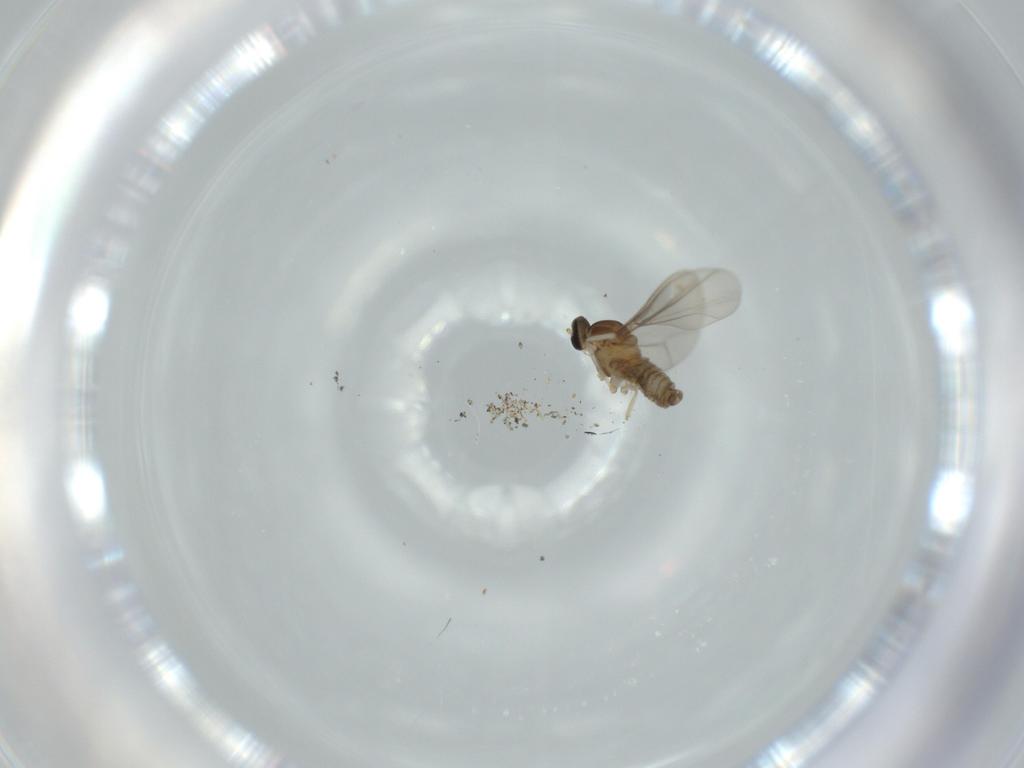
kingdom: Animalia
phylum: Arthropoda
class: Insecta
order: Diptera
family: Cecidomyiidae
